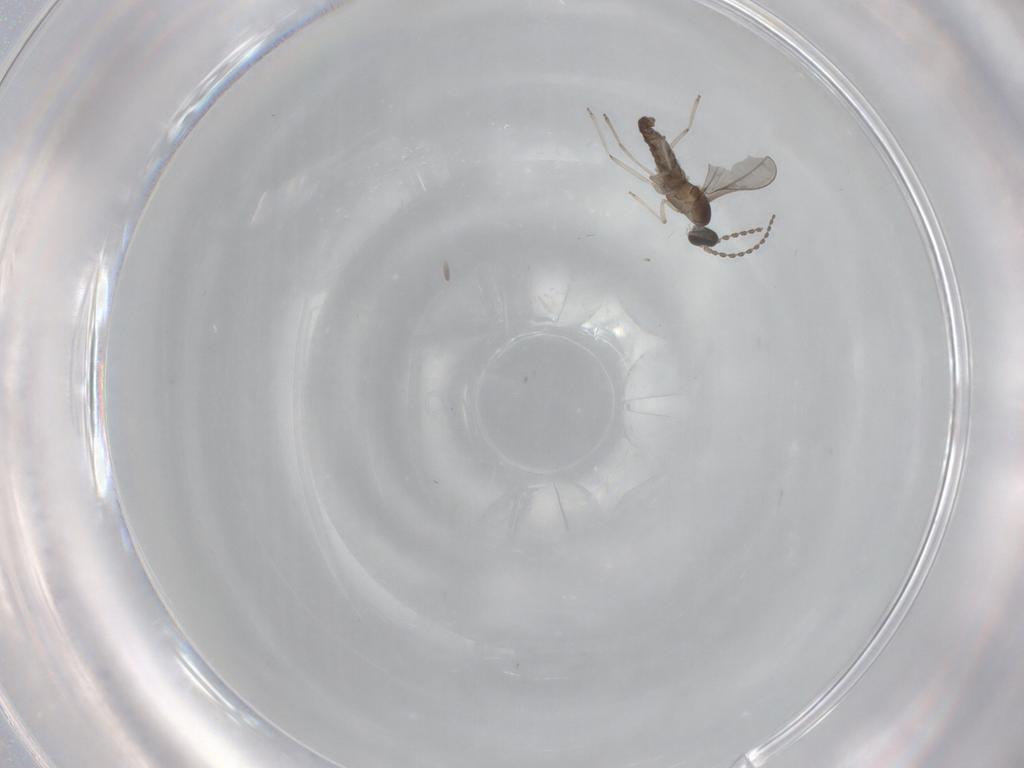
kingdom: Animalia
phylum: Arthropoda
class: Insecta
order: Diptera
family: Cecidomyiidae
